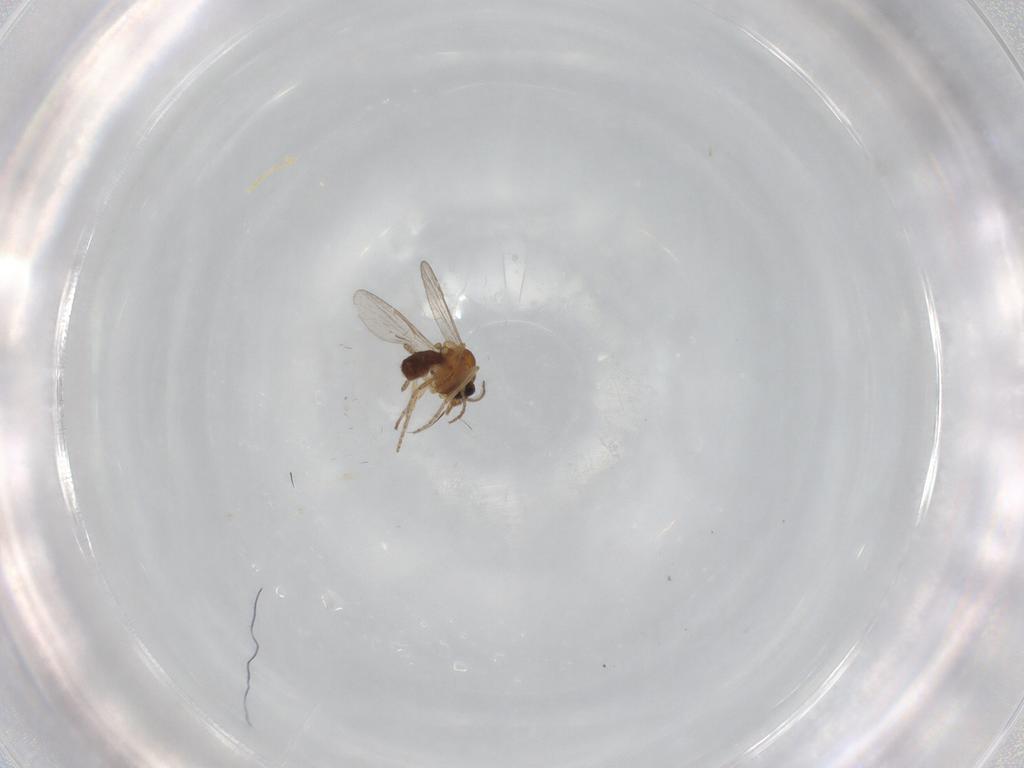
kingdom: Animalia
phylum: Arthropoda
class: Insecta
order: Diptera
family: Ceratopogonidae
